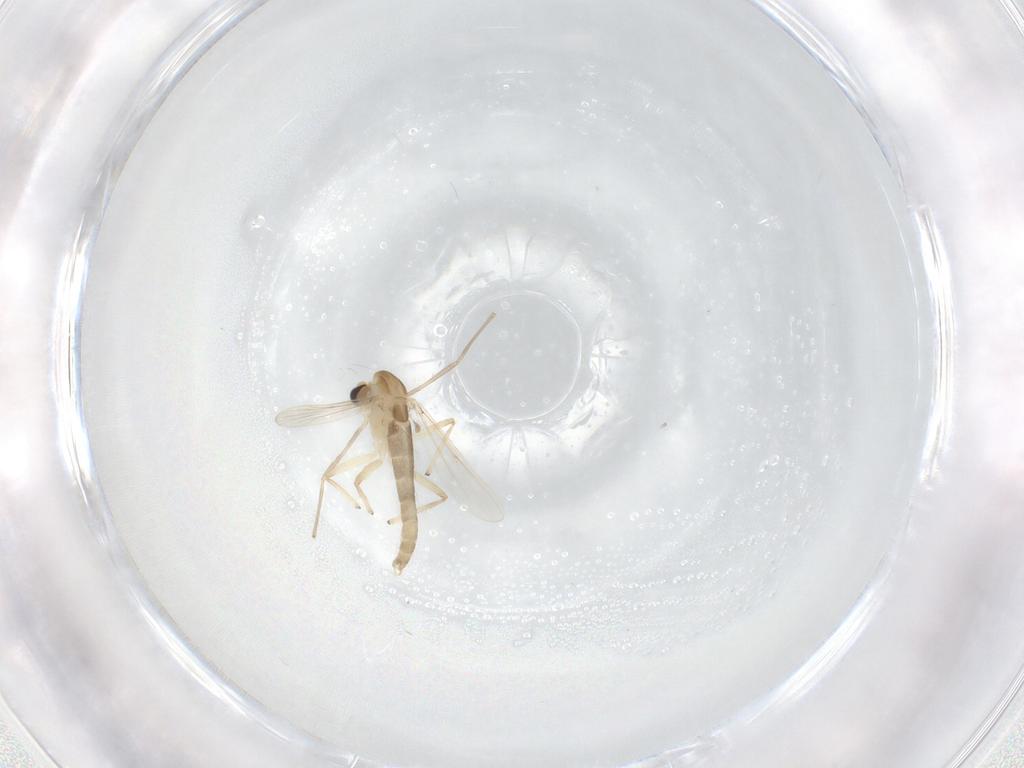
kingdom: Animalia
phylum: Arthropoda
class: Insecta
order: Diptera
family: Chironomidae
